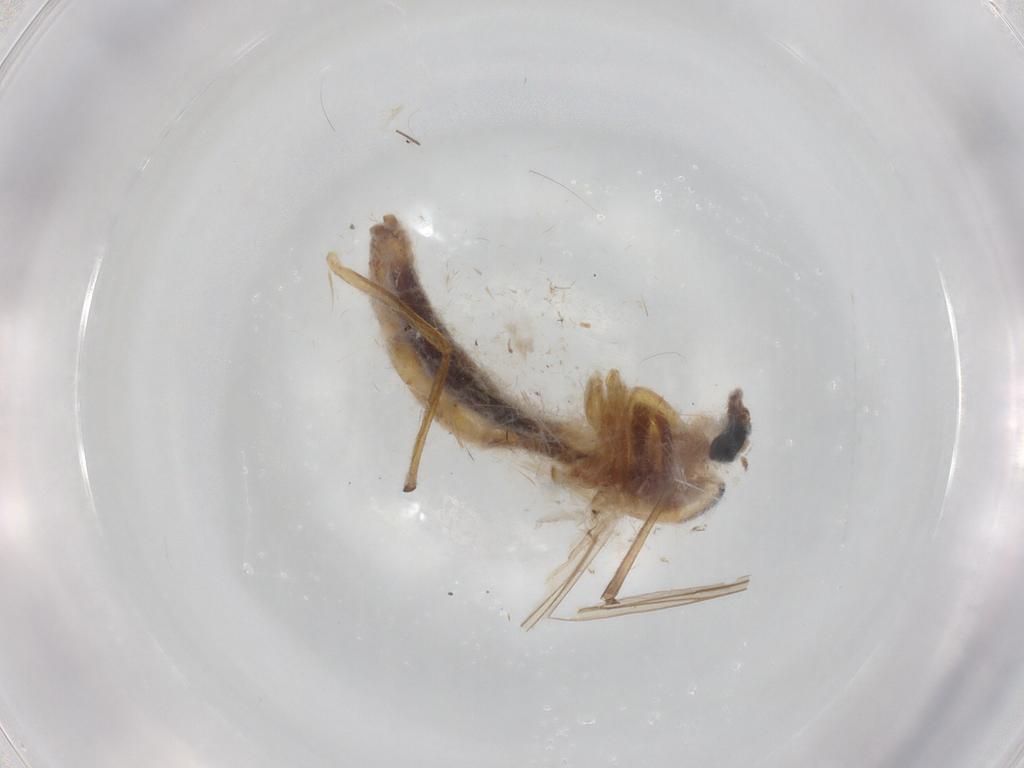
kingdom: Animalia
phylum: Arthropoda
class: Insecta
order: Diptera
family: Chironomidae
